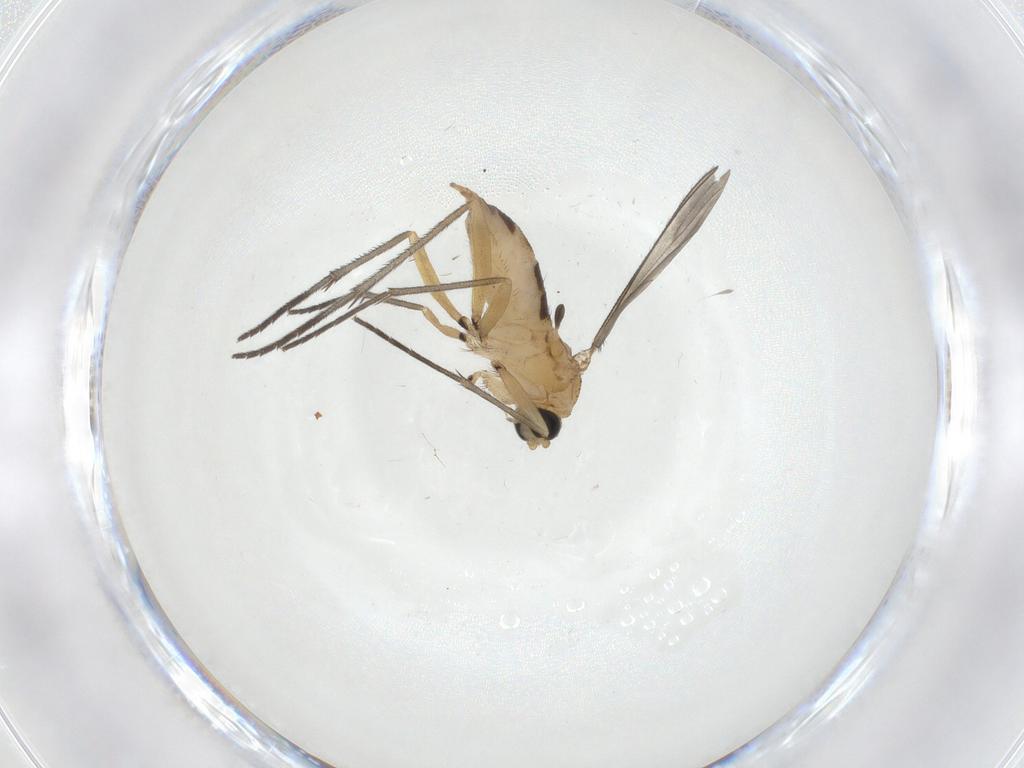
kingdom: Animalia
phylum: Arthropoda
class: Insecta
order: Diptera
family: Sciaridae
